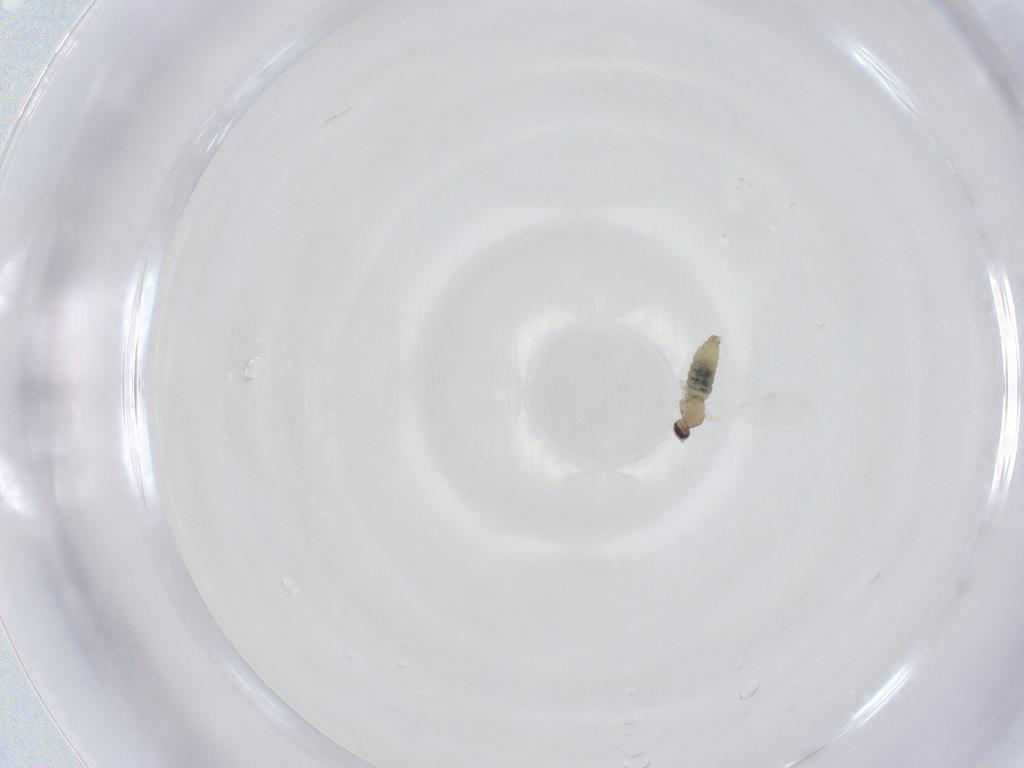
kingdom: Animalia
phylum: Arthropoda
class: Insecta
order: Diptera
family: Cecidomyiidae
